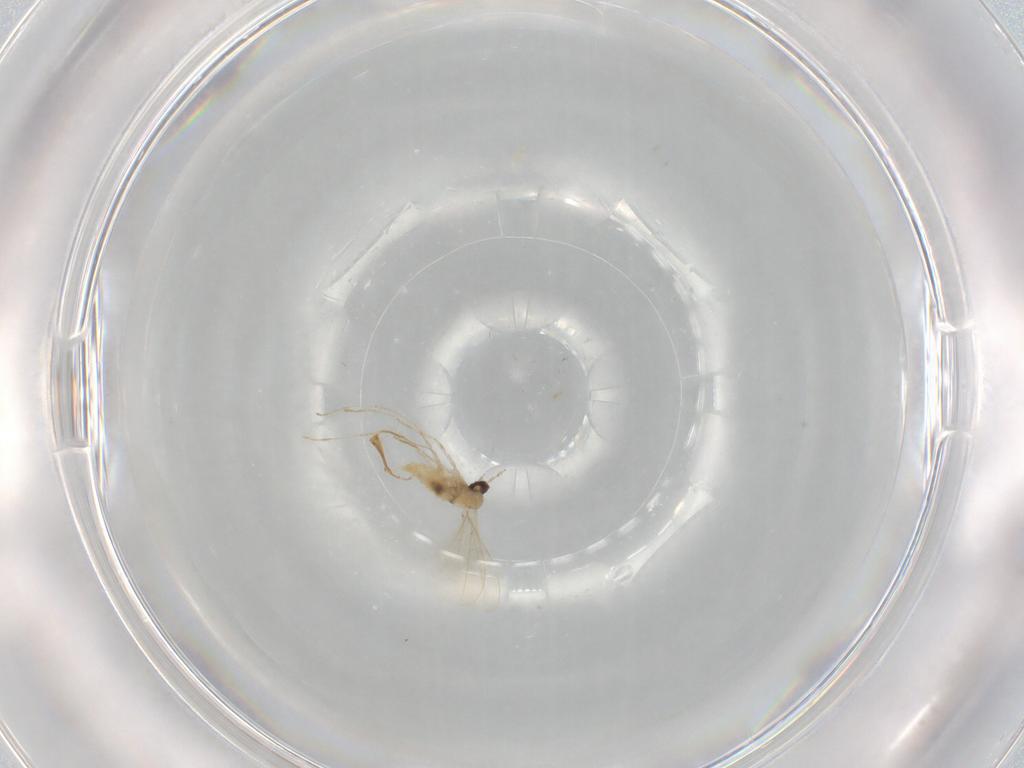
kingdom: Animalia
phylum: Arthropoda
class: Insecta
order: Diptera
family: Cecidomyiidae
